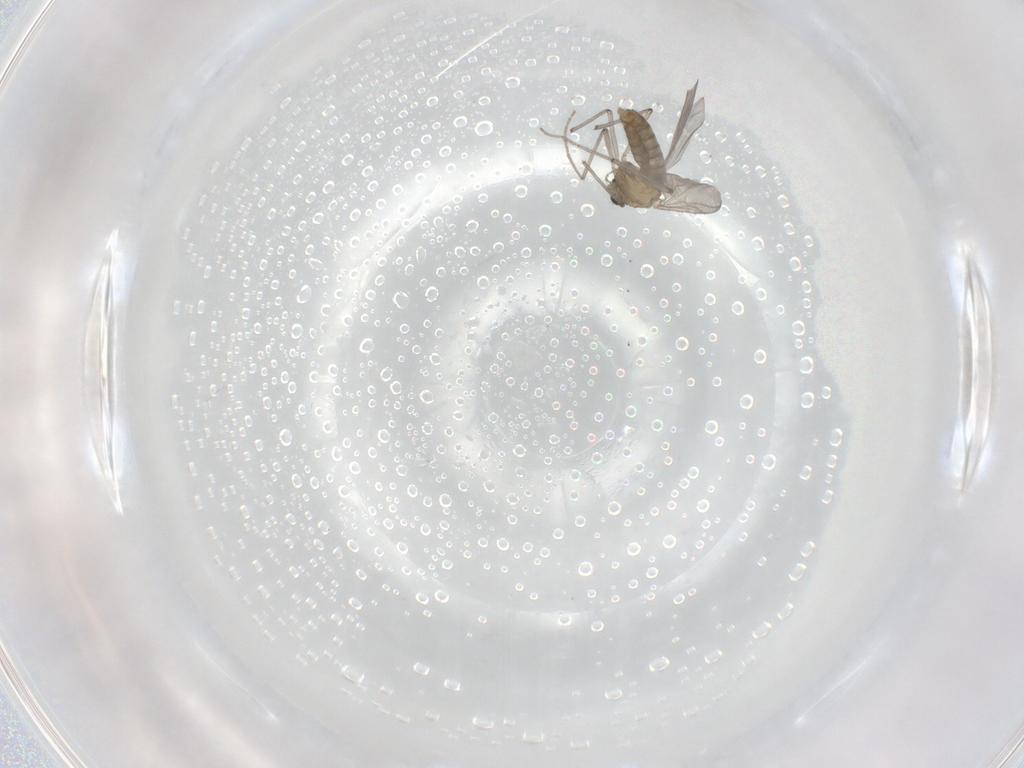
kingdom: Animalia
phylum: Arthropoda
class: Insecta
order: Diptera
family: Chironomidae
